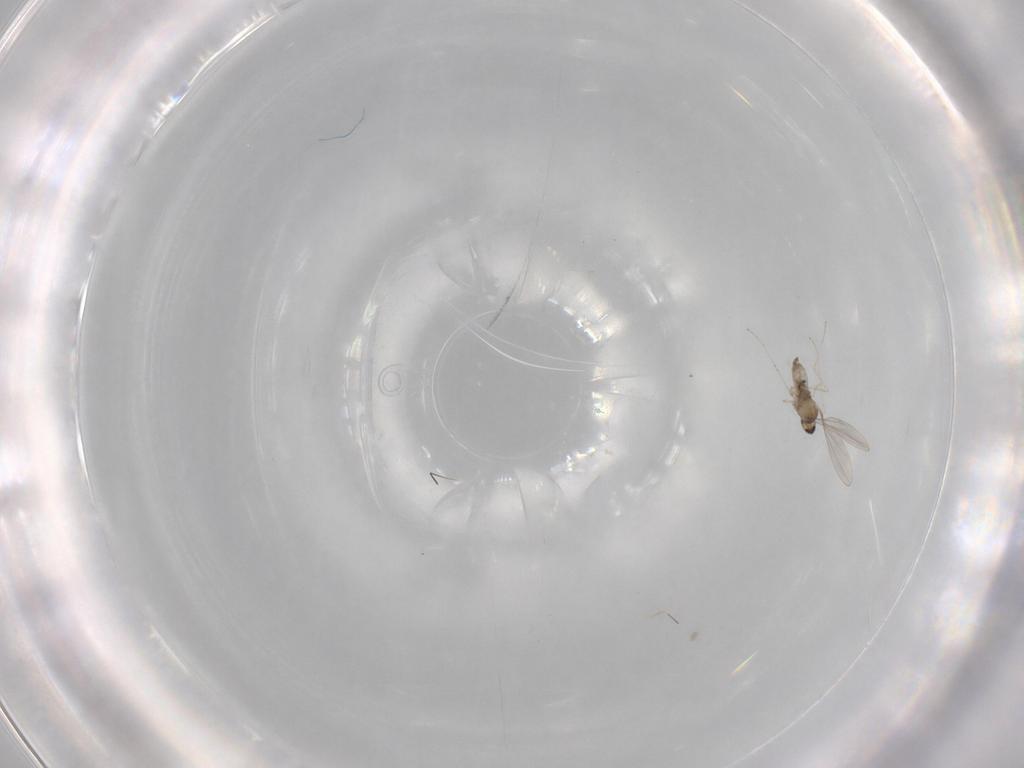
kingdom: Animalia
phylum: Arthropoda
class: Insecta
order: Diptera
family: Cecidomyiidae
